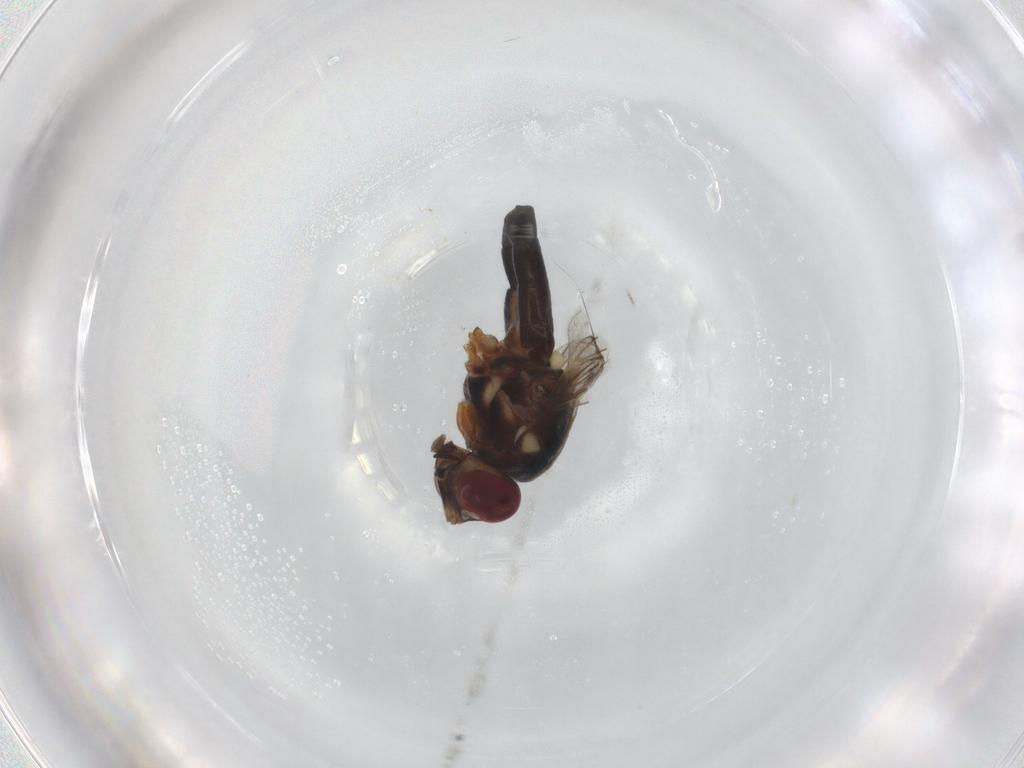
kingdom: Animalia
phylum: Arthropoda
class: Insecta
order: Diptera
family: Chloropidae
